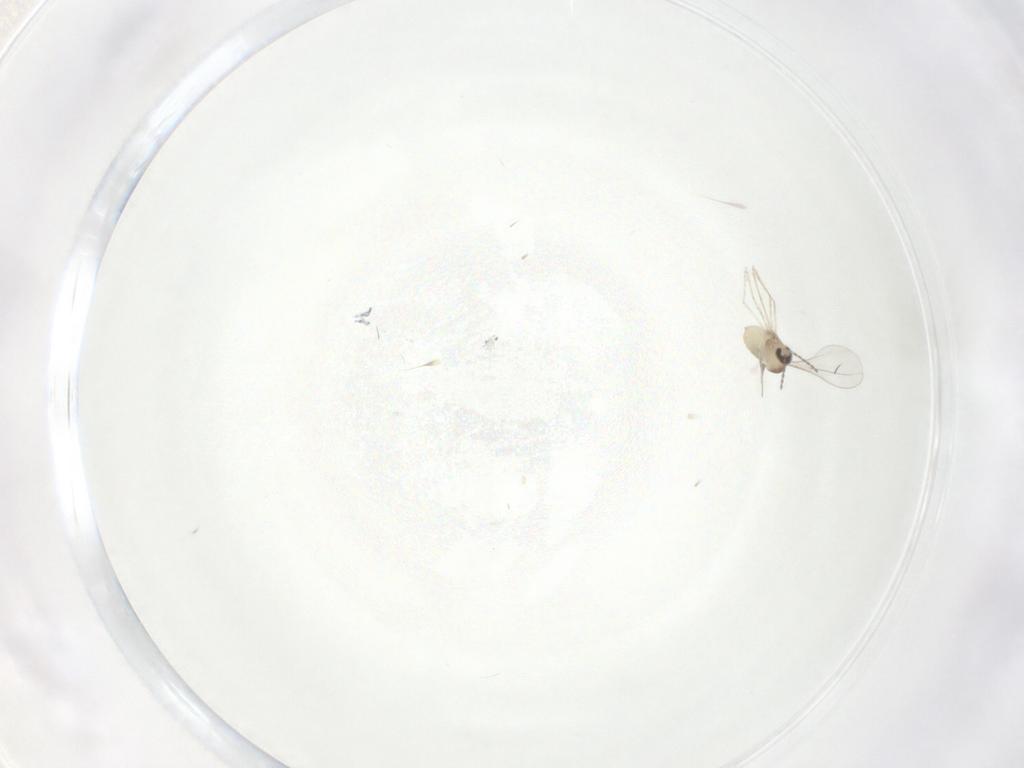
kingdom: Animalia
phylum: Arthropoda
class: Insecta
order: Diptera
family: Cecidomyiidae
